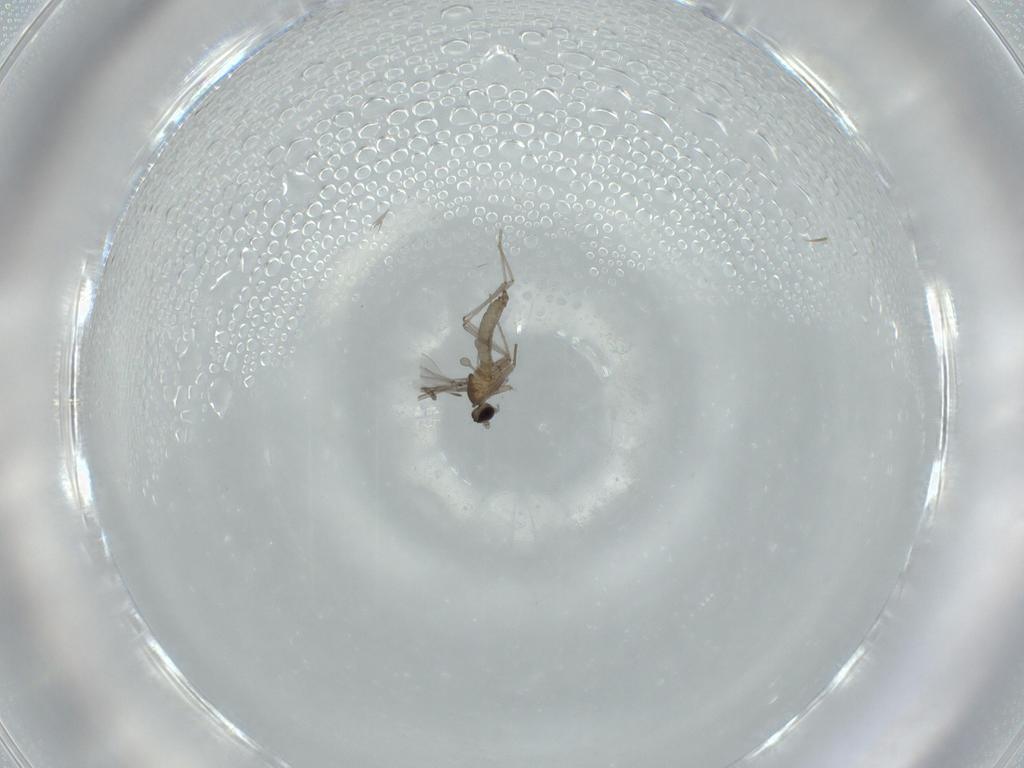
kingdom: Animalia
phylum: Arthropoda
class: Insecta
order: Diptera
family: Cecidomyiidae
